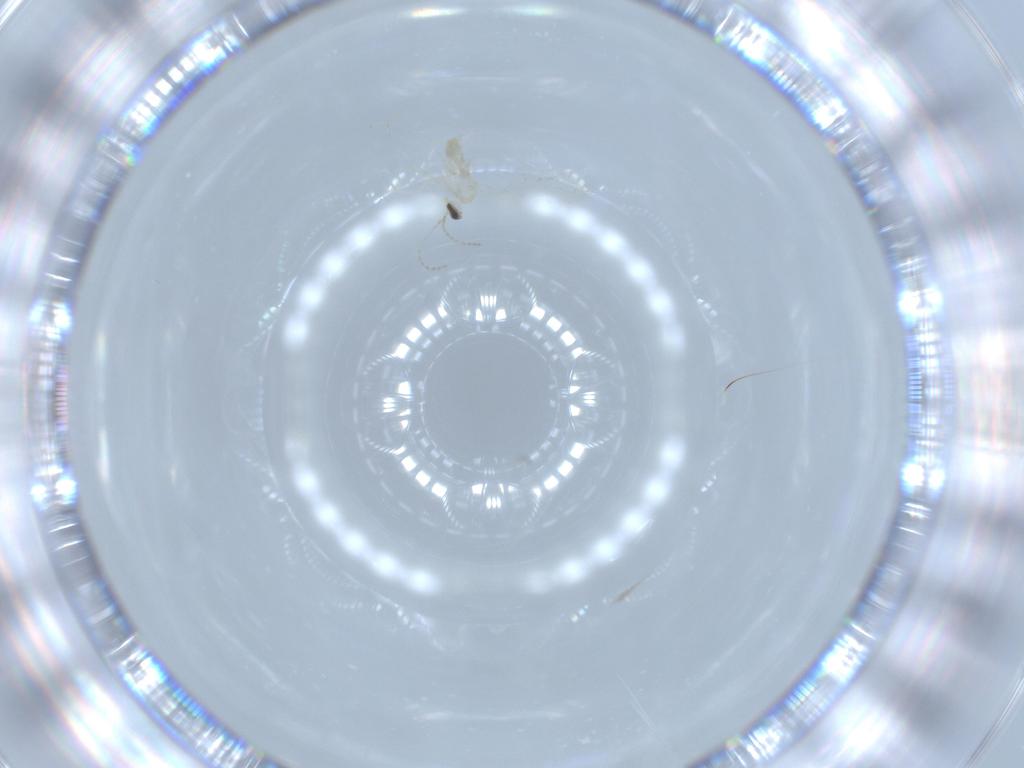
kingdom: Animalia
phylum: Arthropoda
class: Insecta
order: Diptera
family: Cecidomyiidae
